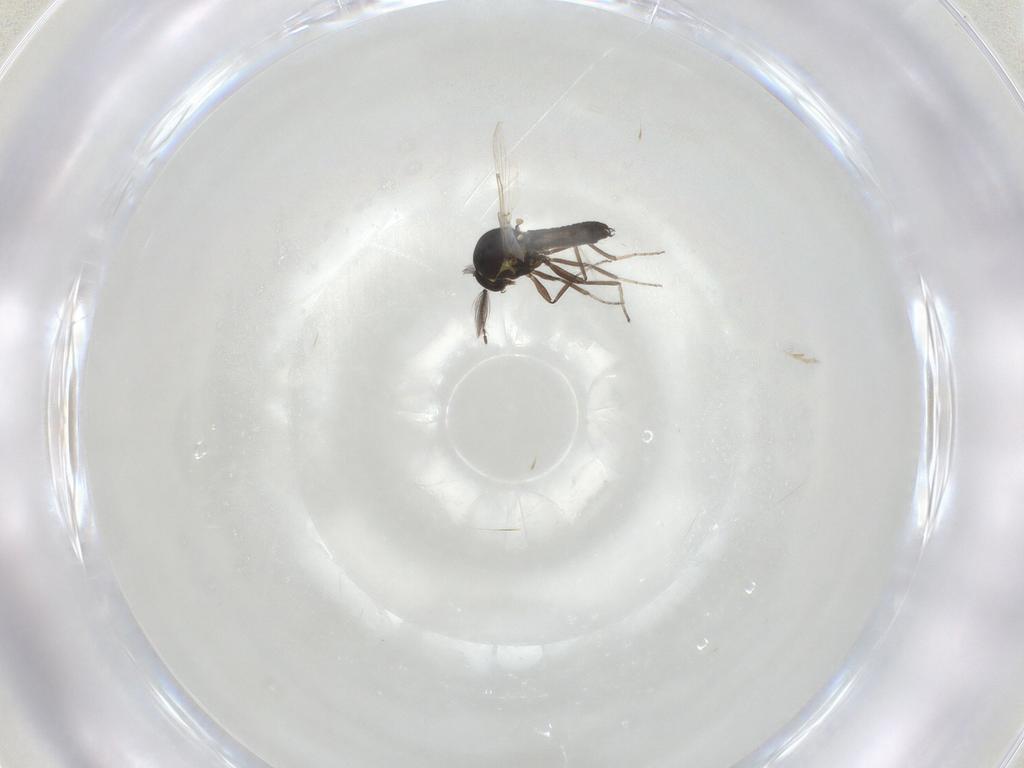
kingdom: Animalia
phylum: Arthropoda
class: Insecta
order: Diptera
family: Ceratopogonidae
